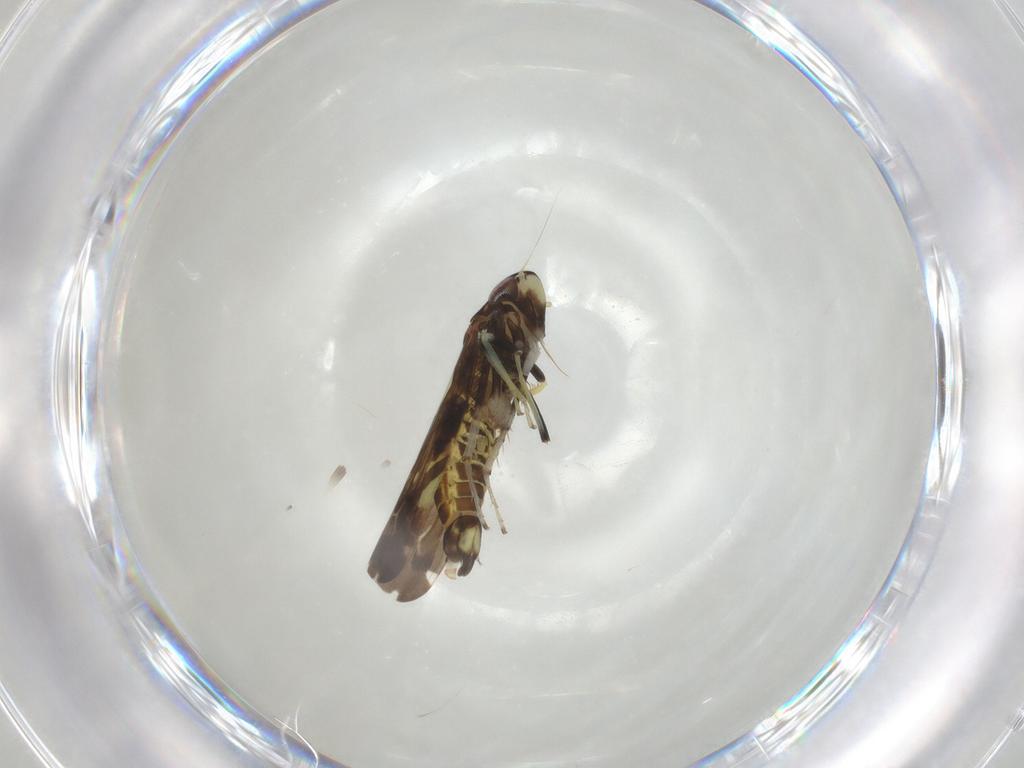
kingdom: Animalia
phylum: Arthropoda
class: Insecta
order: Hemiptera
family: Cicadellidae
